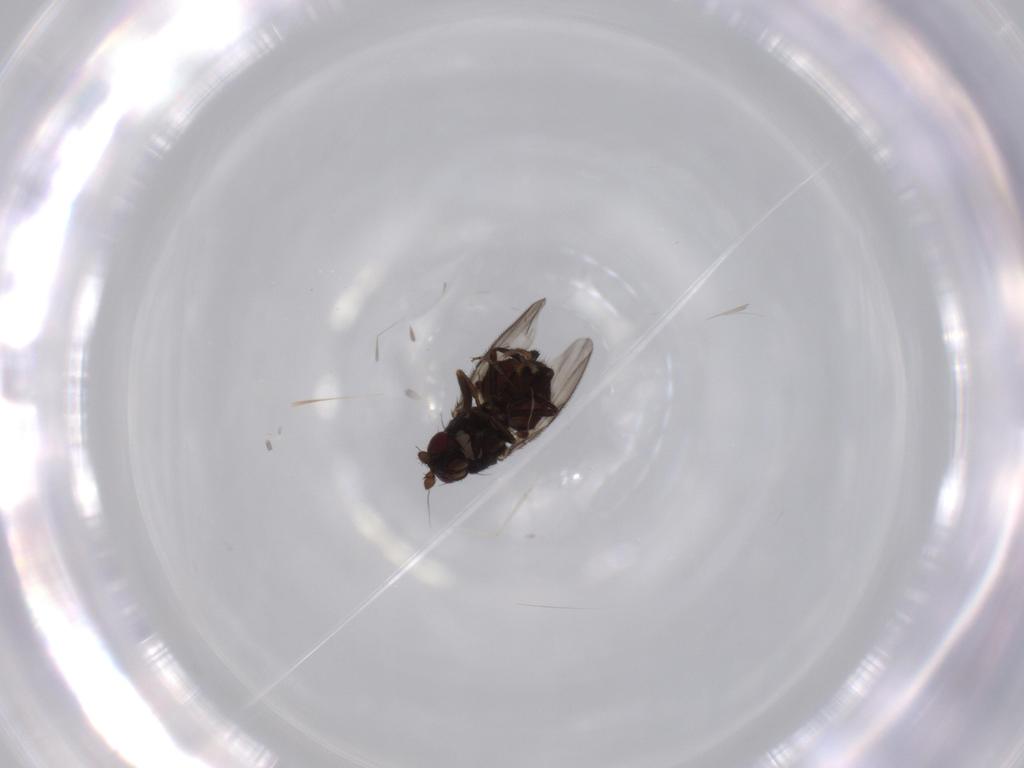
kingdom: Animalia
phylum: Arthropoda
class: Insecta
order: Diptera
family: Sphaeroceridae
